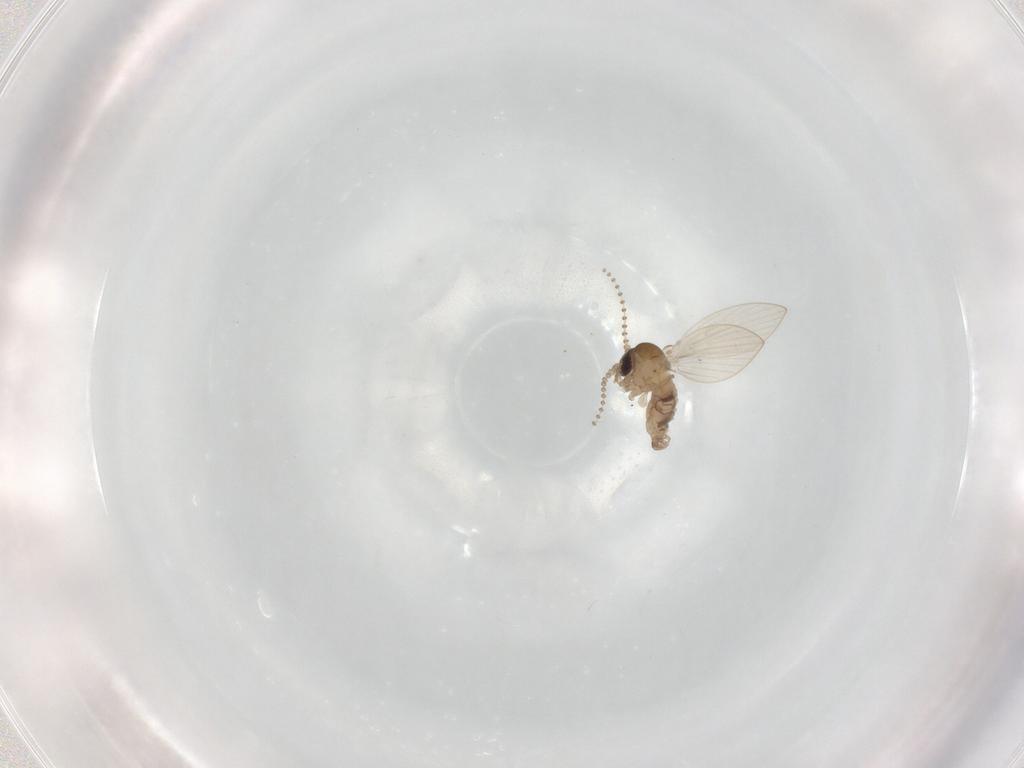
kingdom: Animalia
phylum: Arthropoda
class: Insecta
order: Diptera
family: Psychodidae
